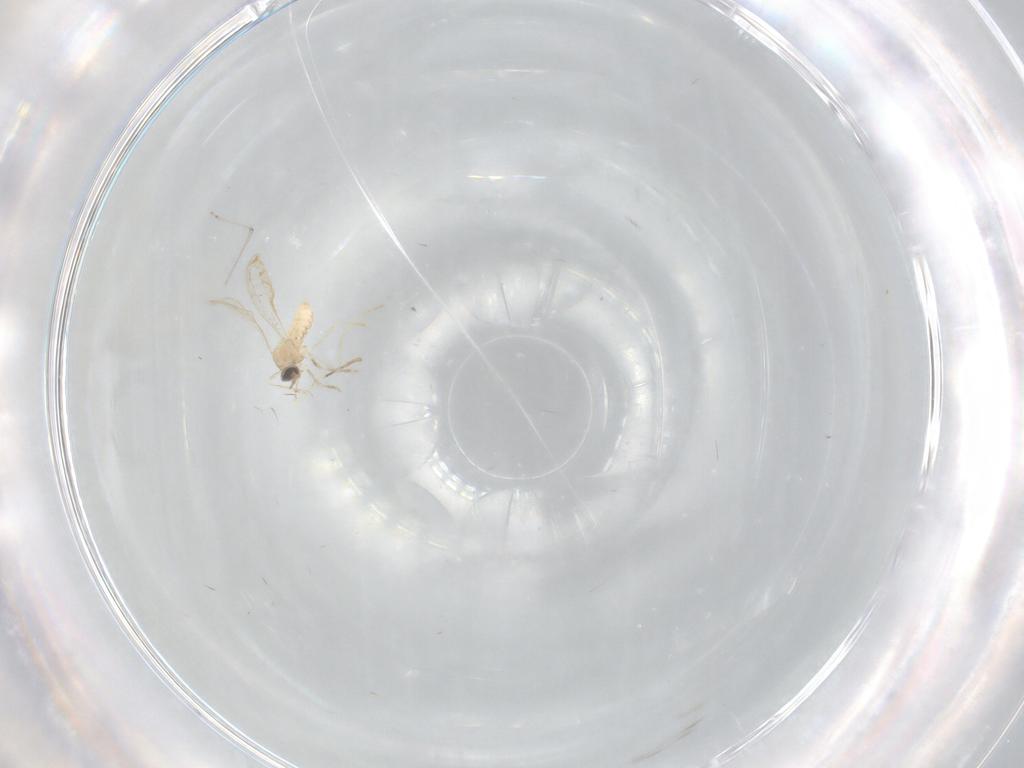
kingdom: Animalia
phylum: Arthropoda
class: Insecta
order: Diptera
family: Cecidomyiidae
